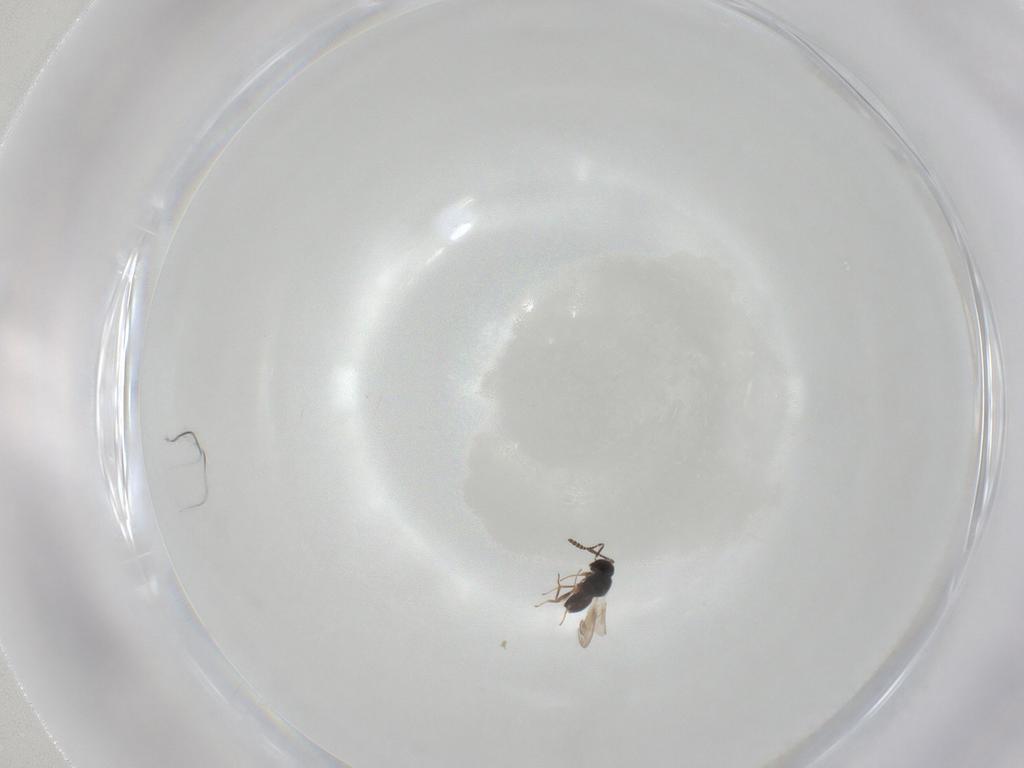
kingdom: Animalia
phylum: Arthropoda
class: Insecta
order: Hymenoptera
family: Scelionidae
